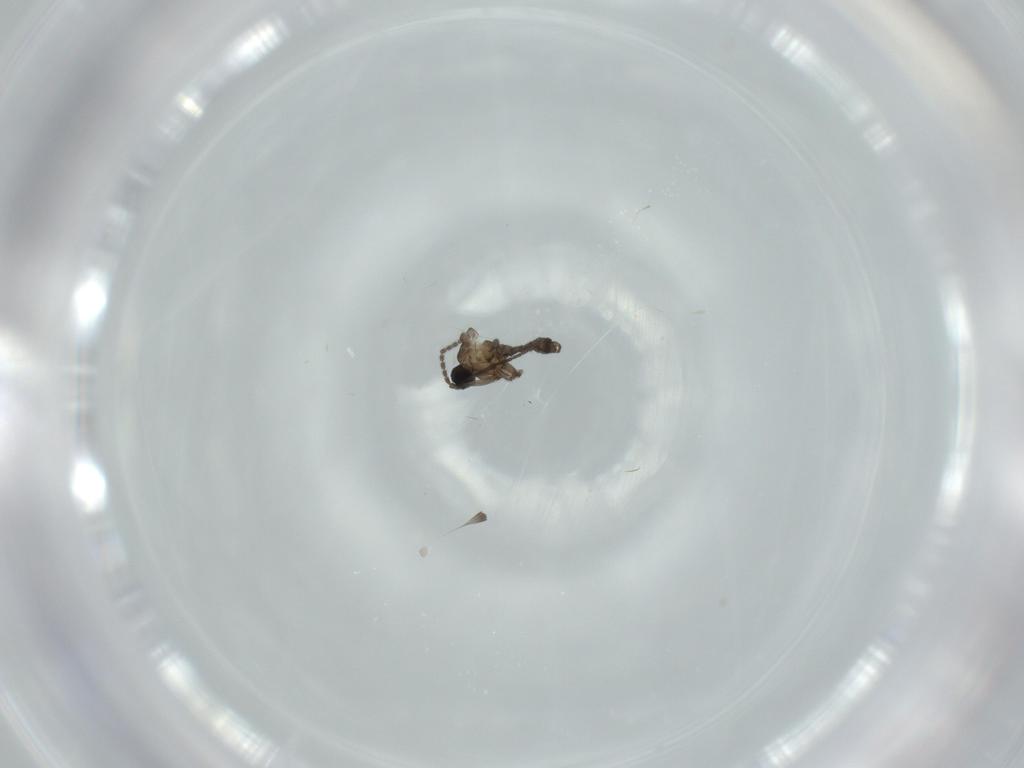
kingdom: Animalia
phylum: Arthropoda
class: Insecta
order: Diptera
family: Sciaridae
